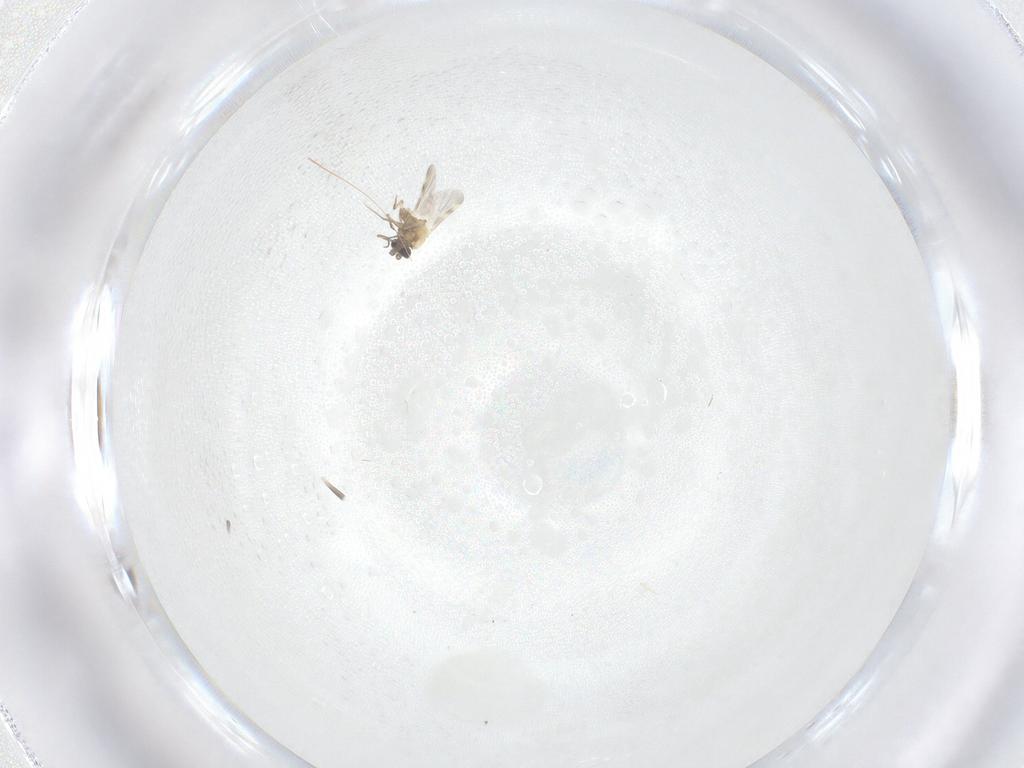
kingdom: Animalia
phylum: Arthropoda
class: Insecta
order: Diptera
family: Ceratopogonidae
